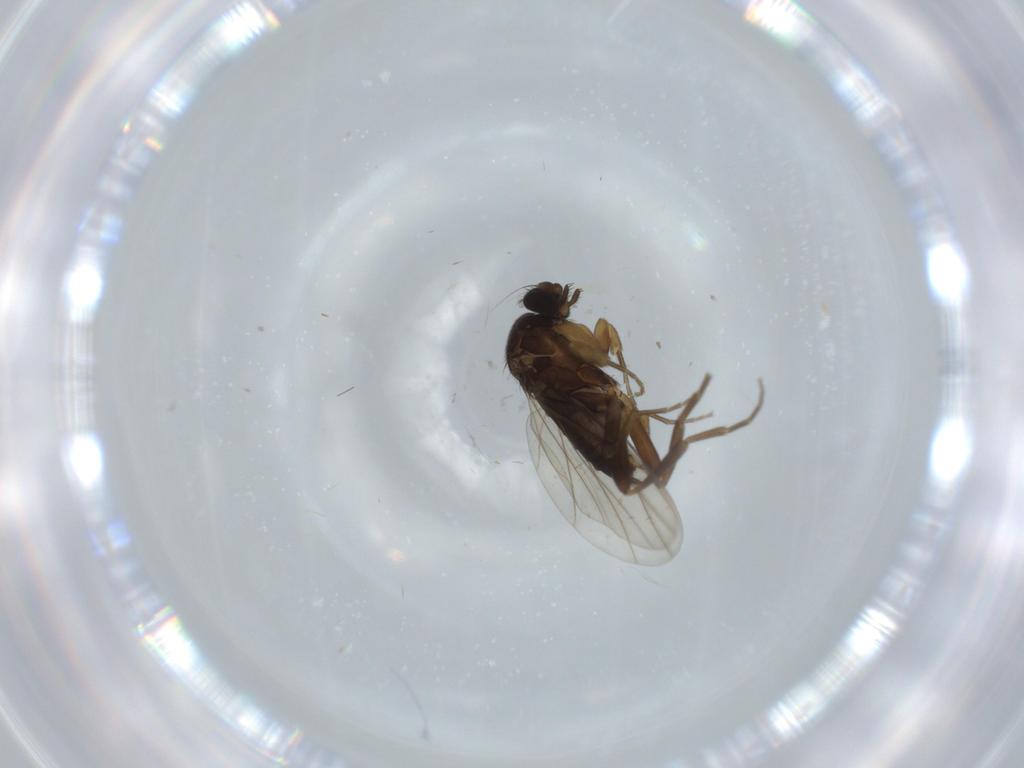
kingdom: Animalia
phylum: Arthropoda
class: Insecta
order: Diptera
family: Phoridae
